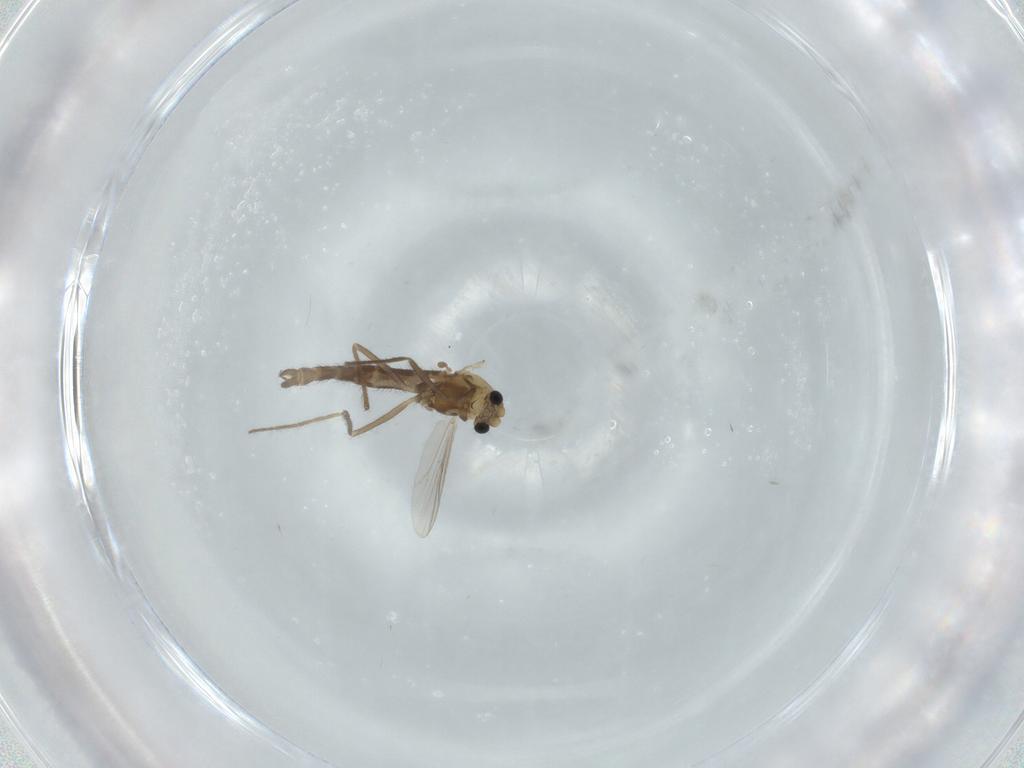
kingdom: Animalia
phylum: Arthropoda
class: Insecta
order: Diptera
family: Chironomidae
